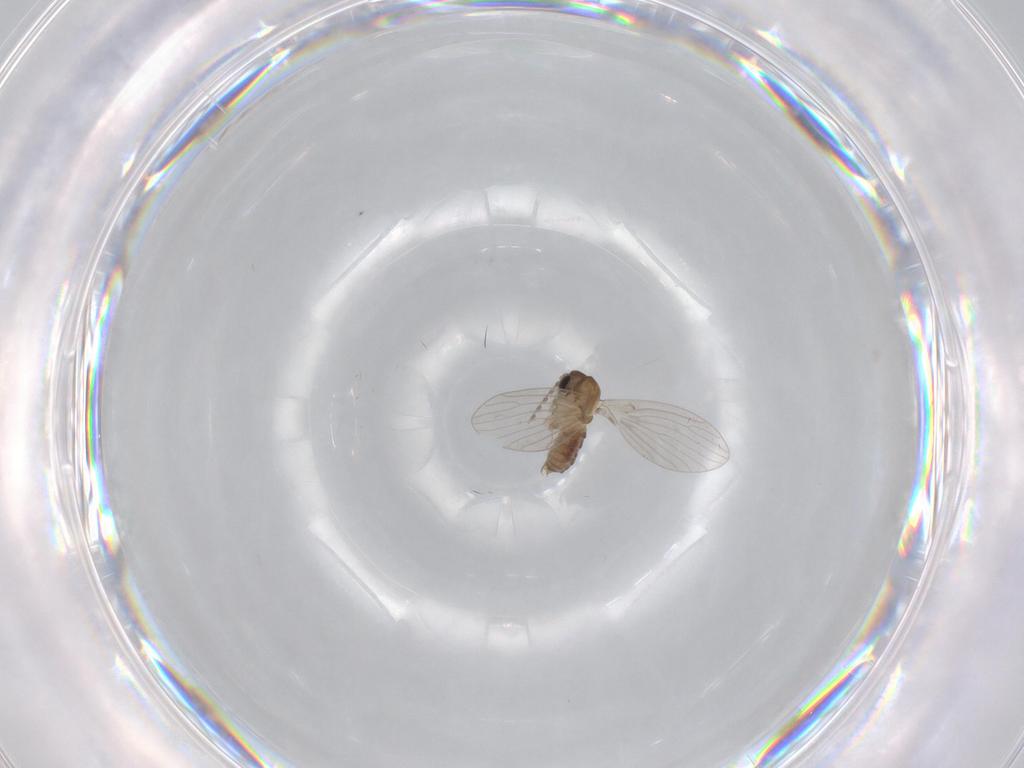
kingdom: Animalia
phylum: Arthropoda
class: Insecta
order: Diptera
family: Psychodidae
